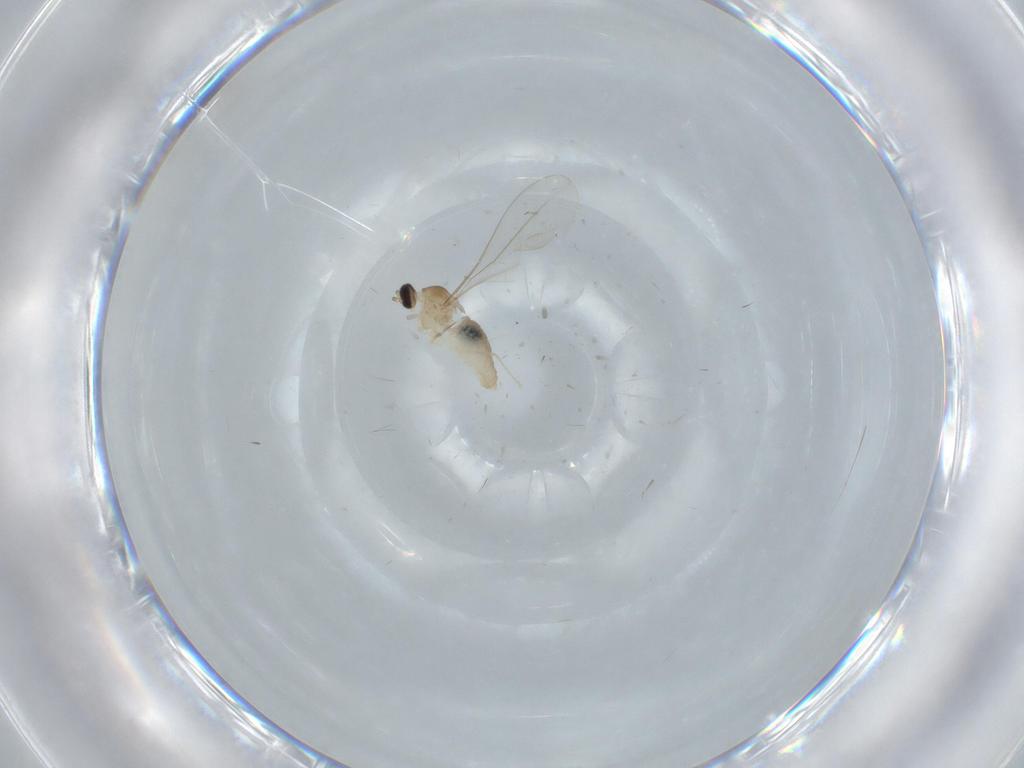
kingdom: Animalia
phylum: Arthropoda
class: Insecta
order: Diptera
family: Cecidomyiidae
